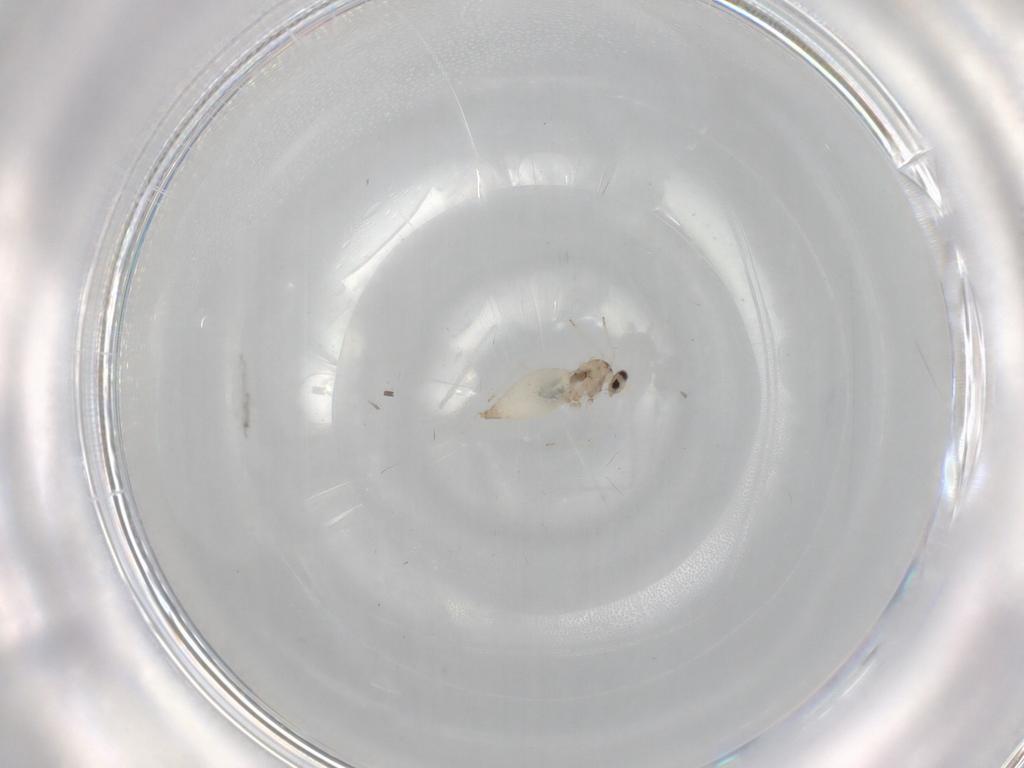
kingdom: Animalia
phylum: Arthropoda
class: Insecta
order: Diptera
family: Cecidomyiidae
